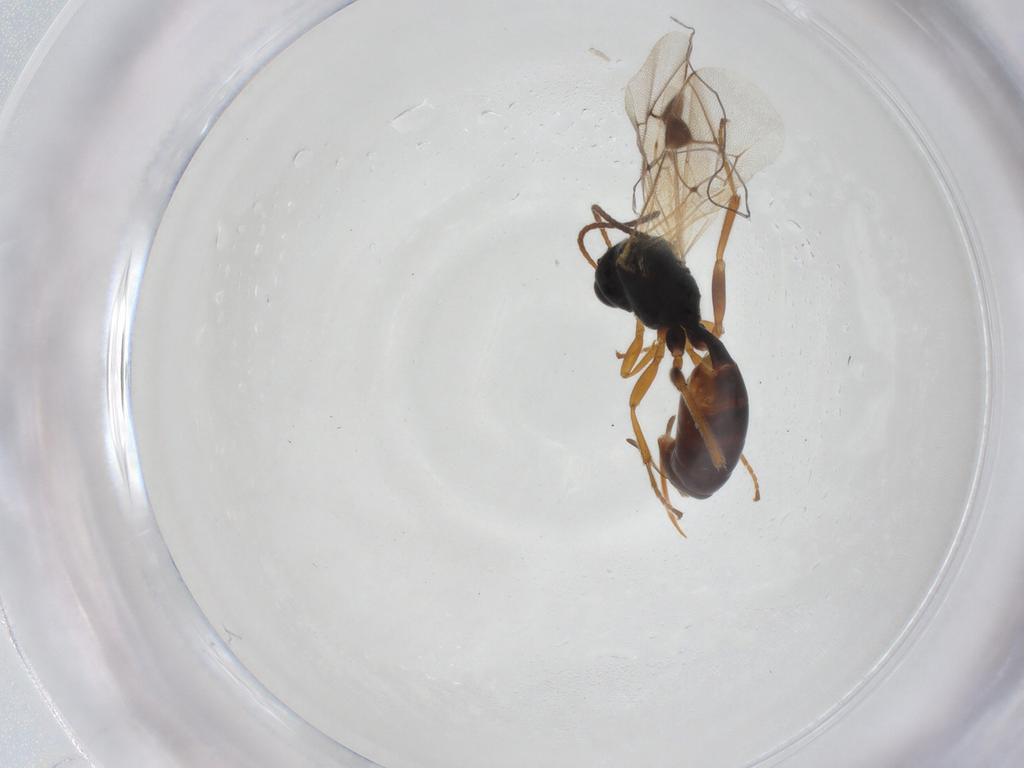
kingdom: Animalia
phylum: Arthropoda
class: Insecta
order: Hymenoptera
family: Ichneumonidae
